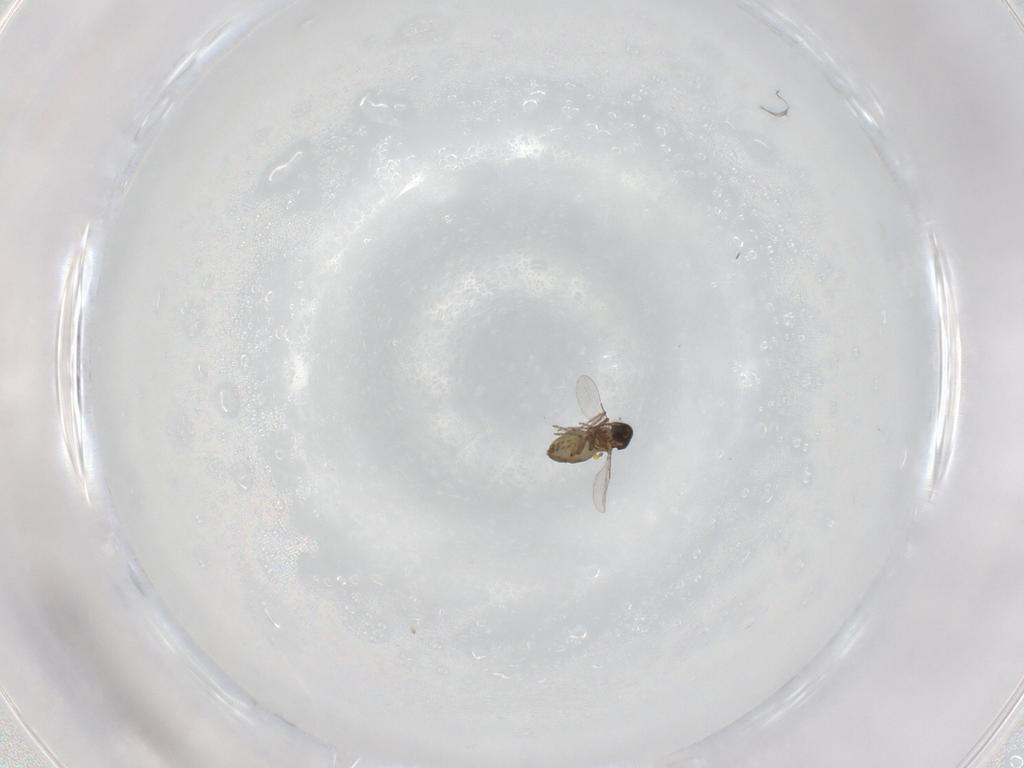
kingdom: Animalia
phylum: Arthropoda
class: Insecta
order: Diptera
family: Ceratopogonidae
